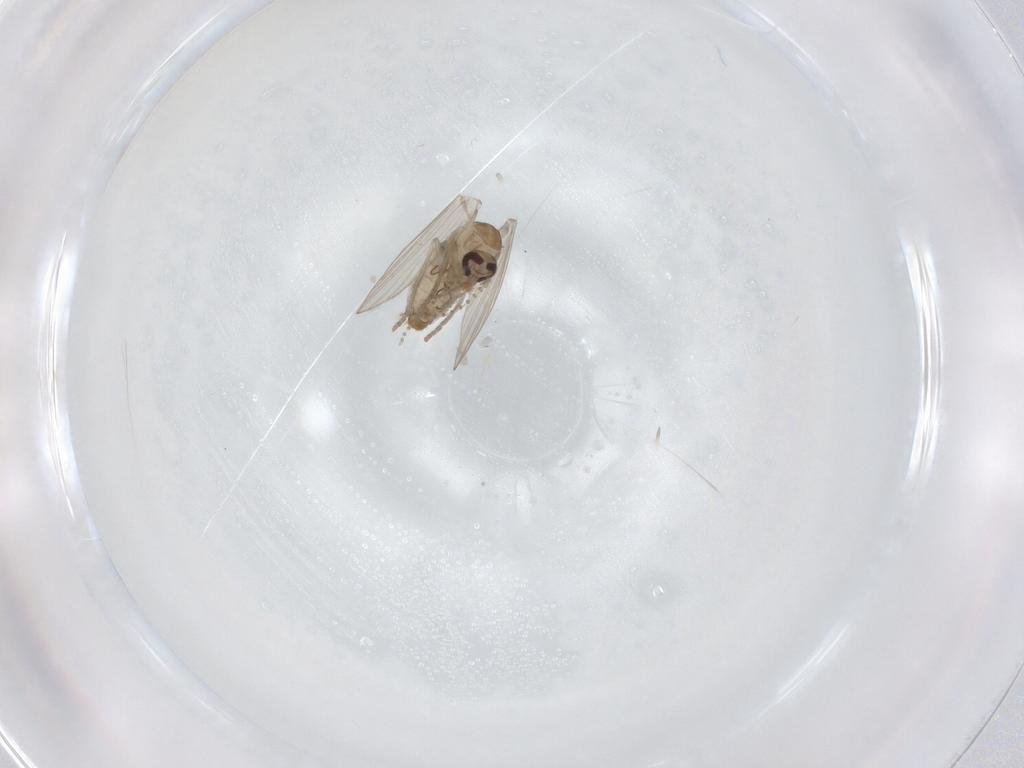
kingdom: Animalia
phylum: Arthropoda
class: Insecta
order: Diptera
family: Psychodidae
